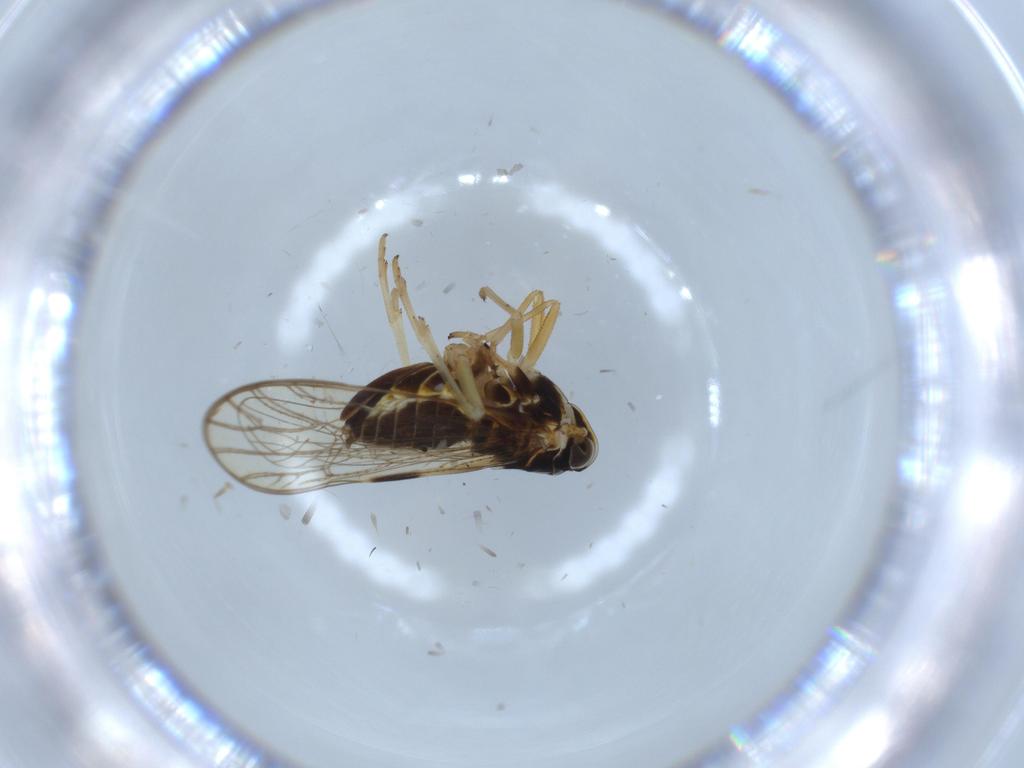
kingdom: Animalia
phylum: Arthropoda
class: Insecta
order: Hemiptera
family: Pyrrhocoridae
